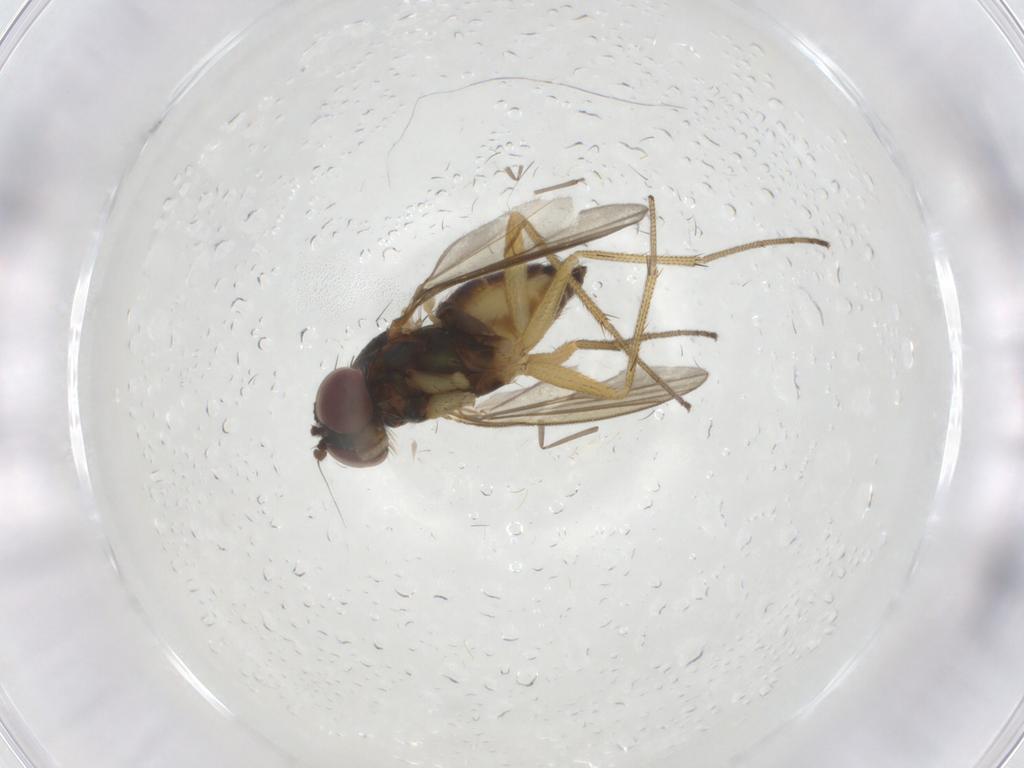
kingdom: Animalia
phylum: Arthropoda
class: Insecta
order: Diptera
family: Dolichopodidae
